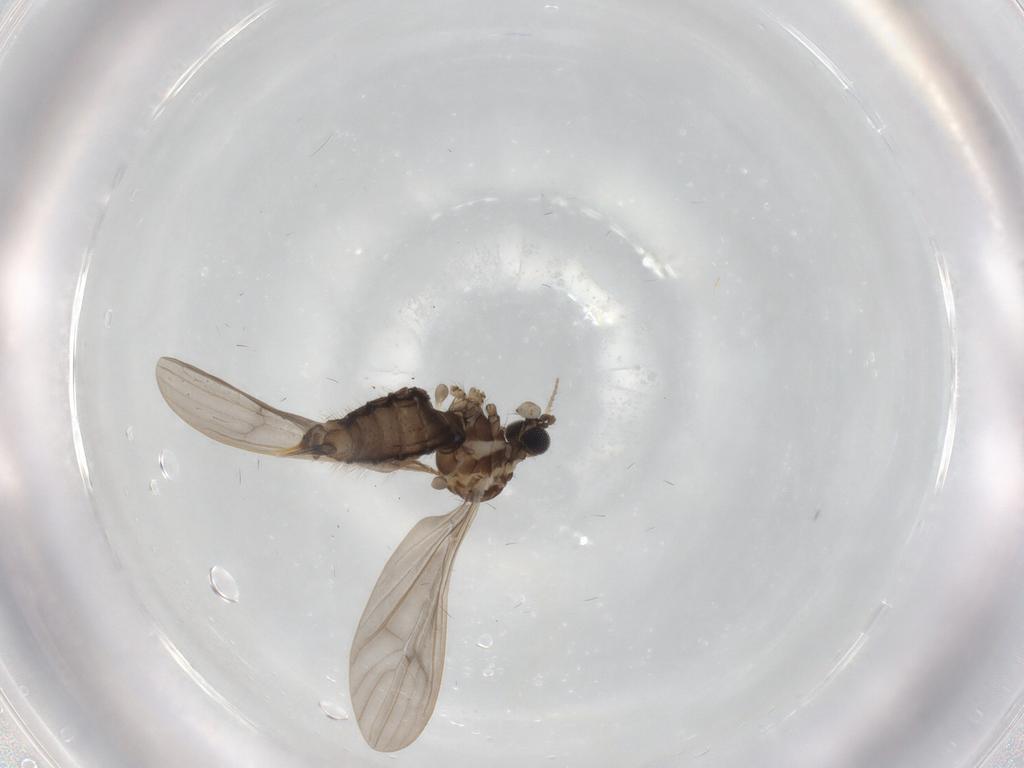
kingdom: Animalia
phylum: Arthropoda
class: Insecta
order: Diptera
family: Limoniidae
